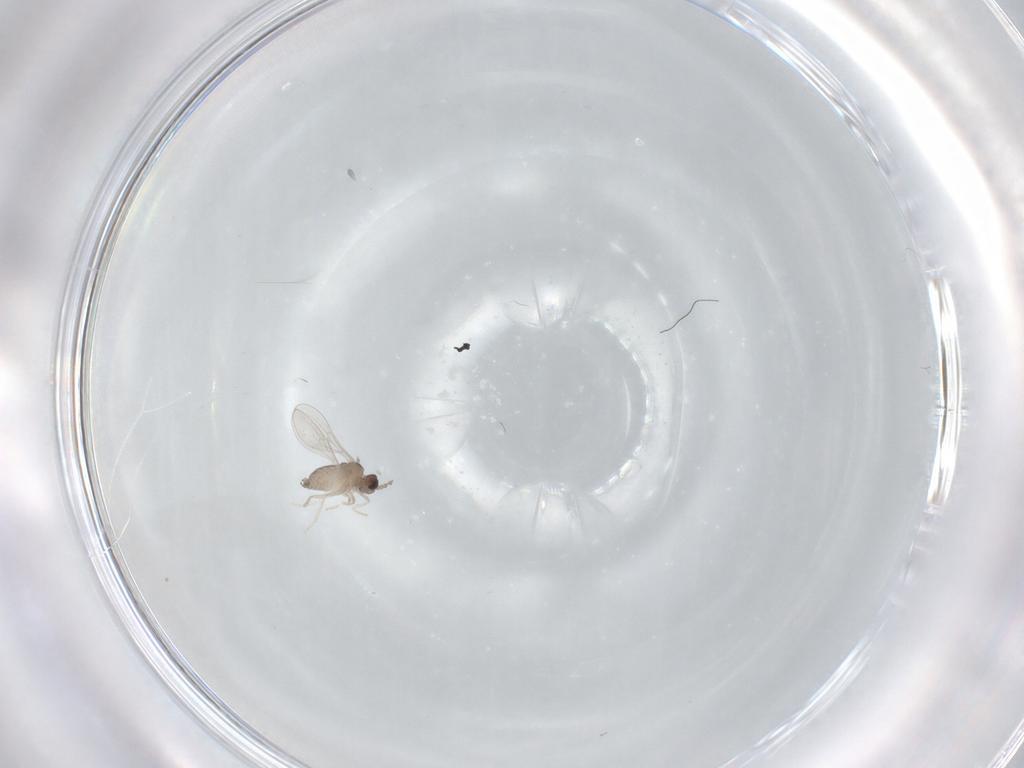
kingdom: Animalia
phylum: Arthropoda
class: Insecta
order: Diptera
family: Cecidomyiidae
